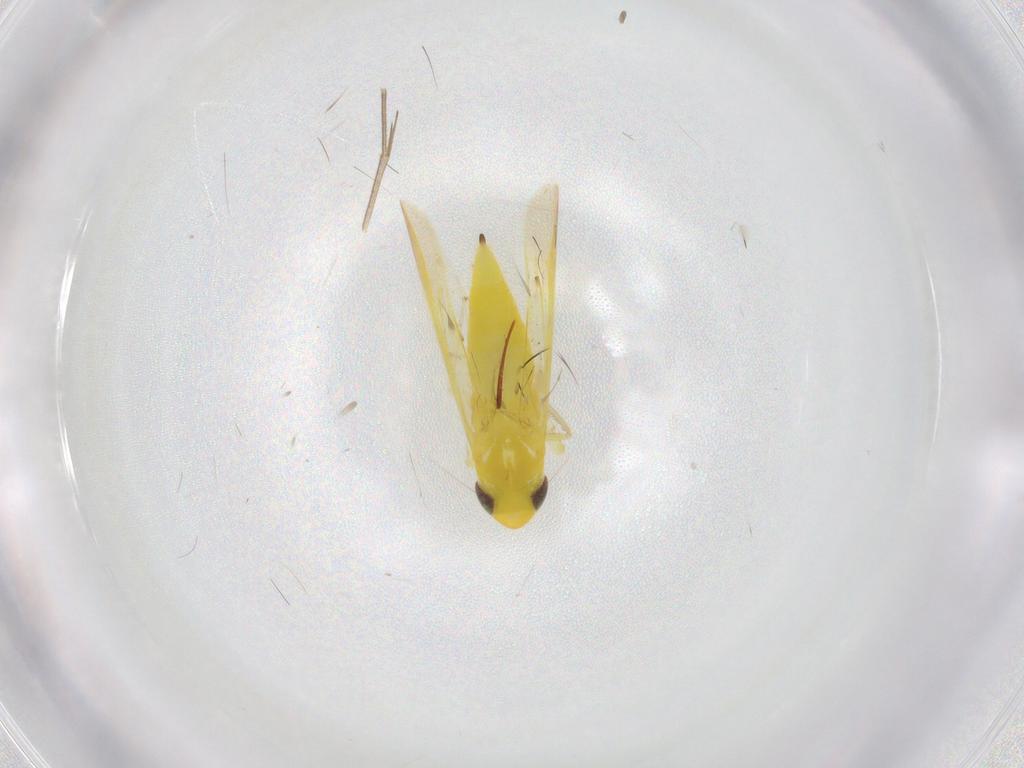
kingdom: Animalia
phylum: Arthropoda
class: Insecta
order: Hemiptera
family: Cicadellidae
